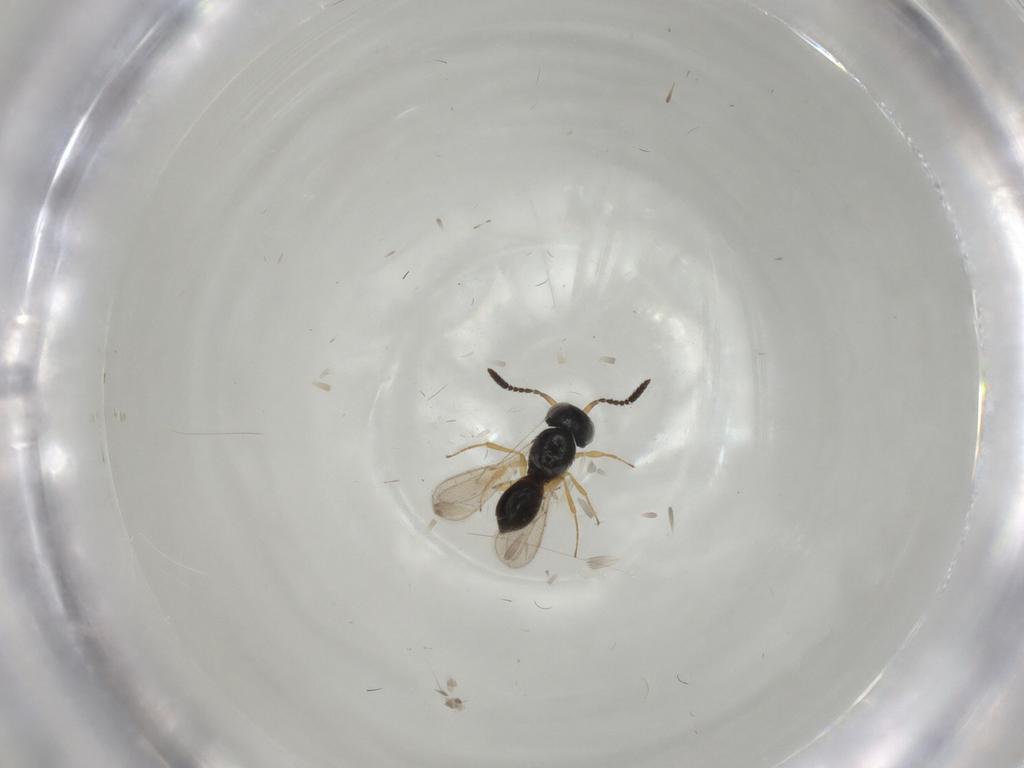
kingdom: Animalia
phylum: Arthropoda
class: Insecta
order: Hymenoptera
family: Scelionidae
